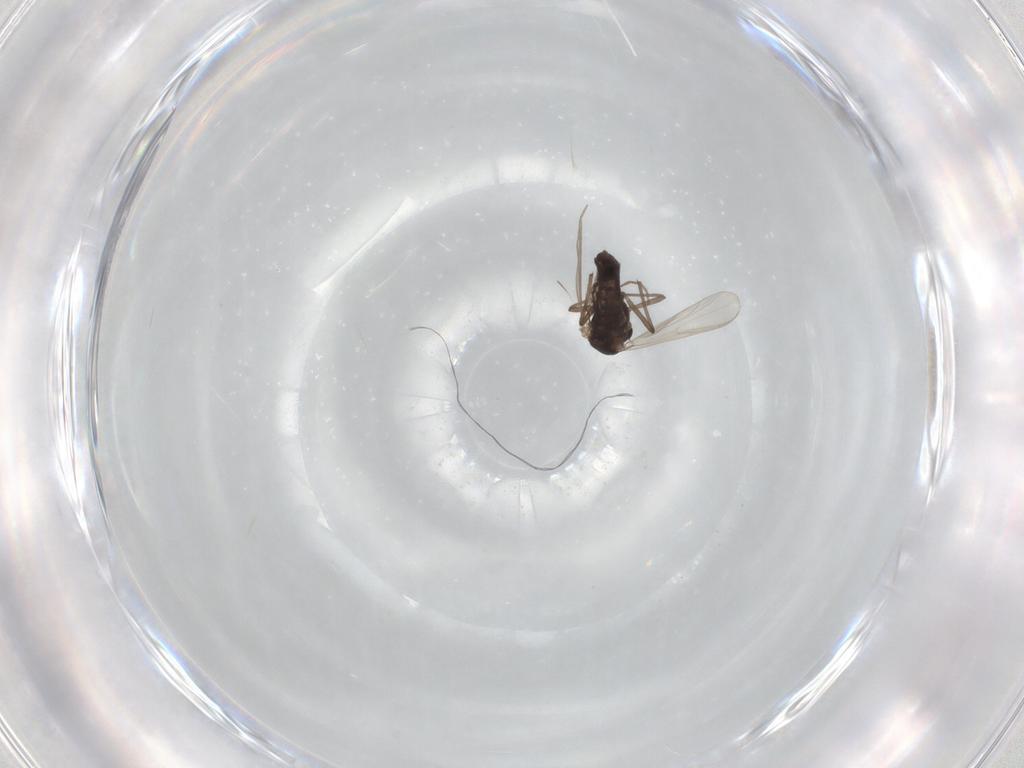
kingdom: Animalia
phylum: Arthropoda
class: Insecta
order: Diptera
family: Chironomidae
